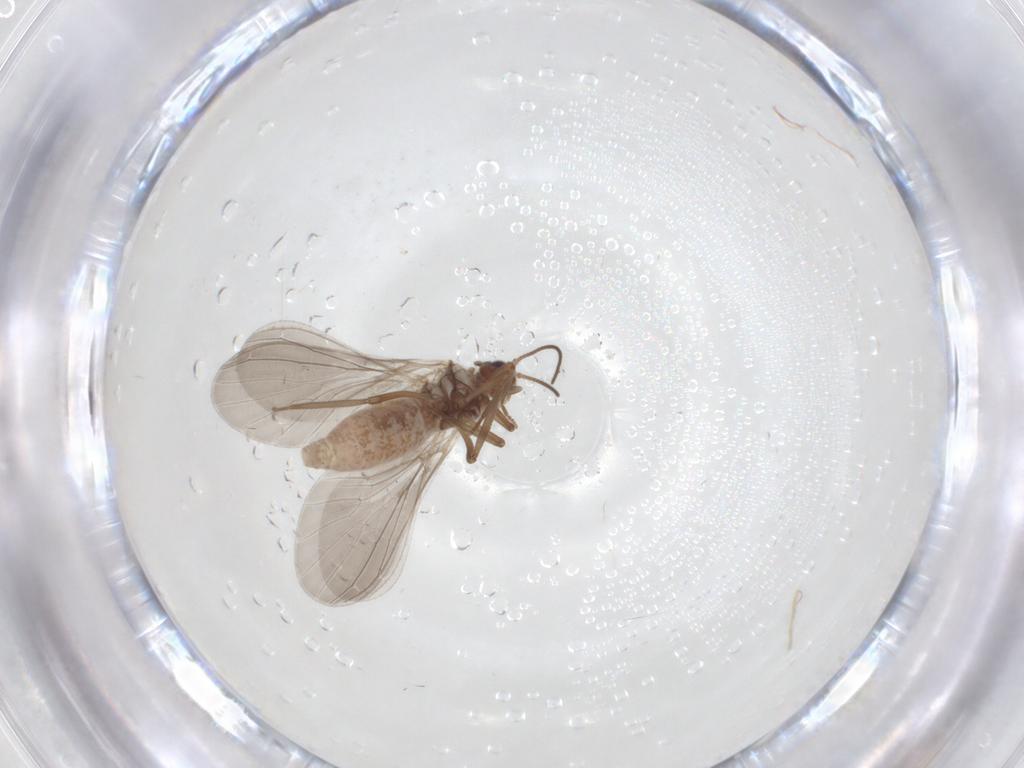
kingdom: Animalia
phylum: Arthropoda
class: Insecta
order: Neuroptera
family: Coniopterygidae
